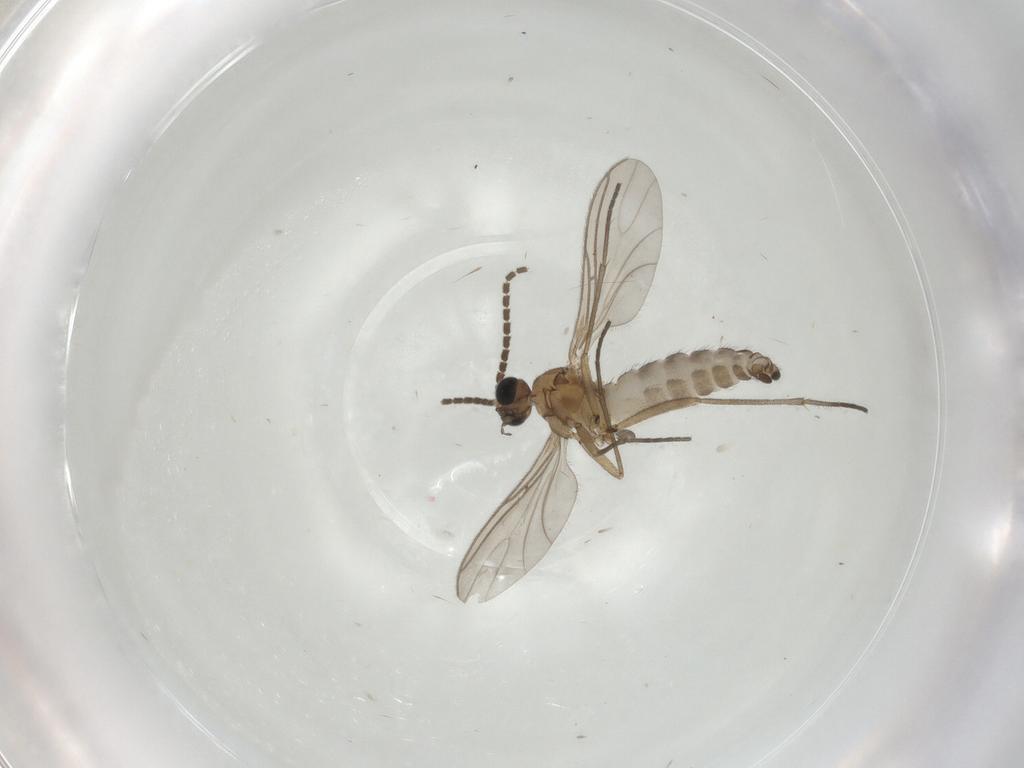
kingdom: Animalia
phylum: Arthropoda
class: Insecta
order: Diptera
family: Sciaridae
